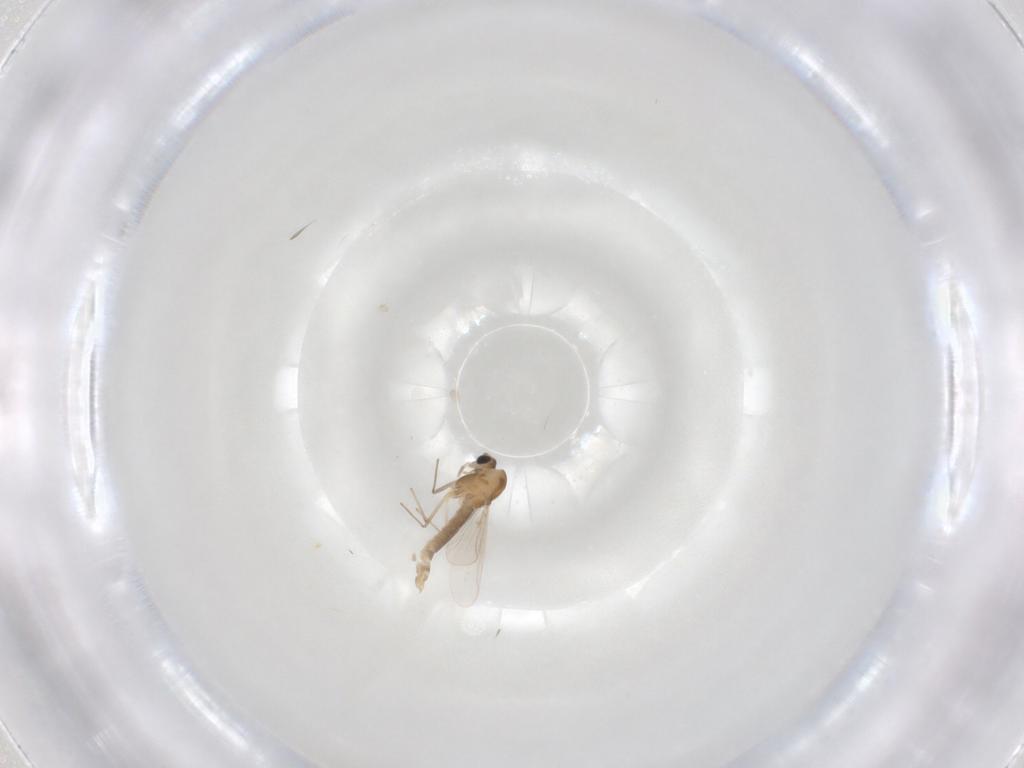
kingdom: Animalia
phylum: Arthropoda
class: Insecta
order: Diptera
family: Chironomidae
